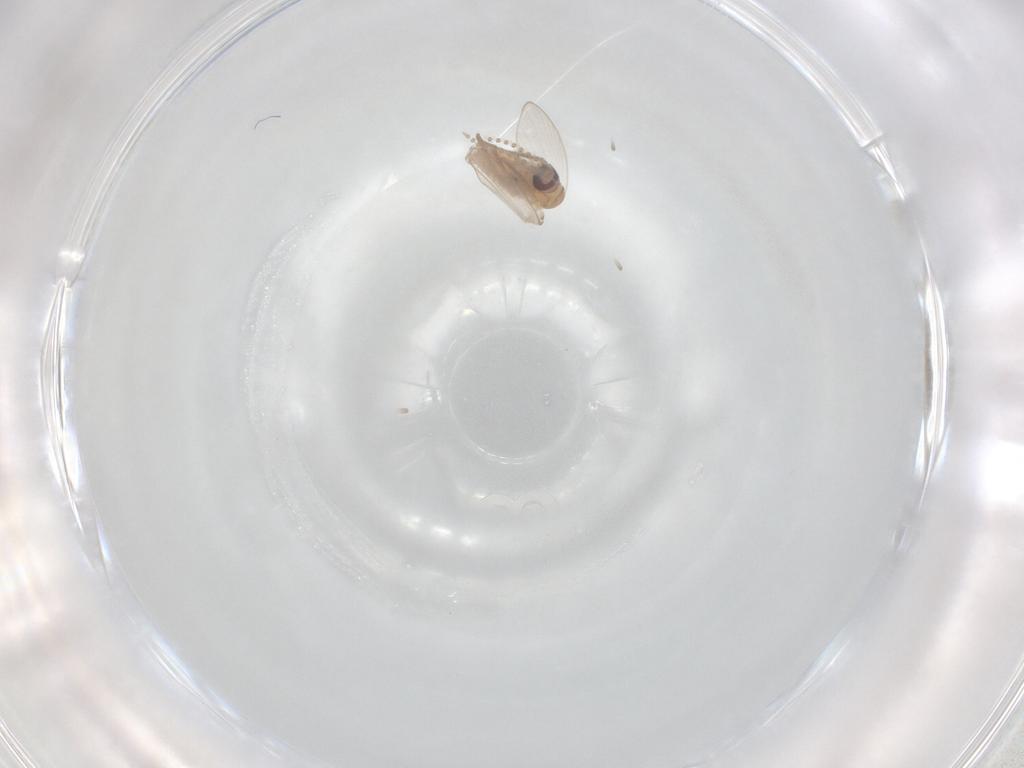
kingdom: Animalia
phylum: Arthropoda
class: Insecta
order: Diptera
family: Psychodidae
